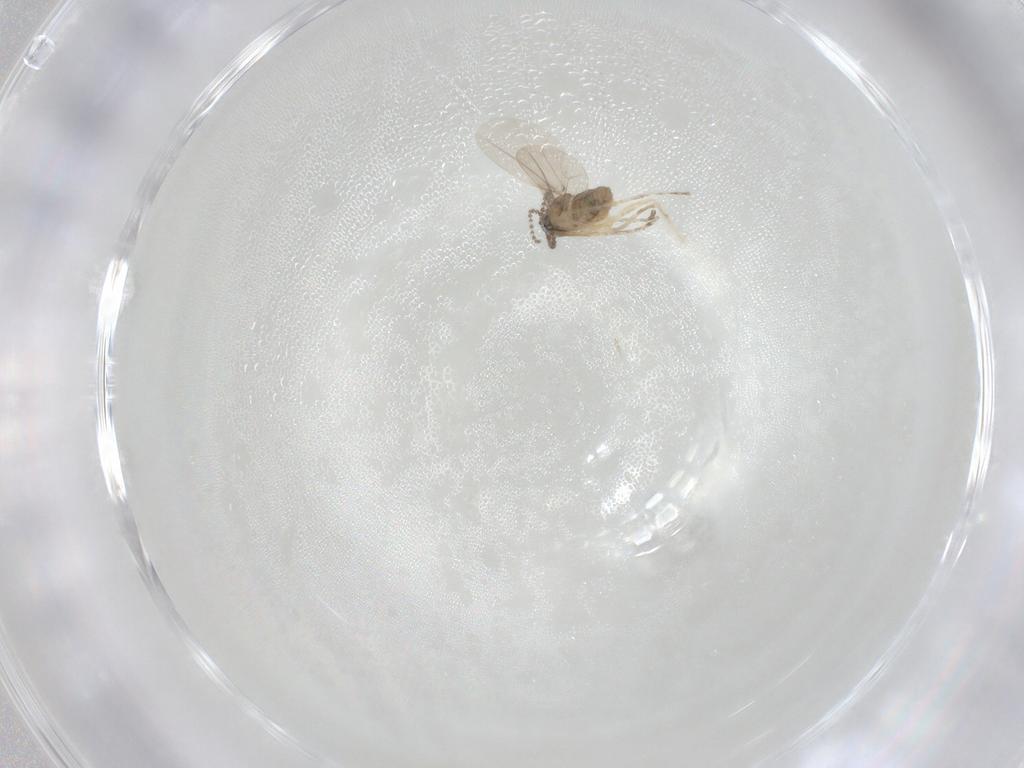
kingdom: Animalia
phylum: Arthropoda
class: Insecta
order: Diptera
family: Cecidomyiidae
